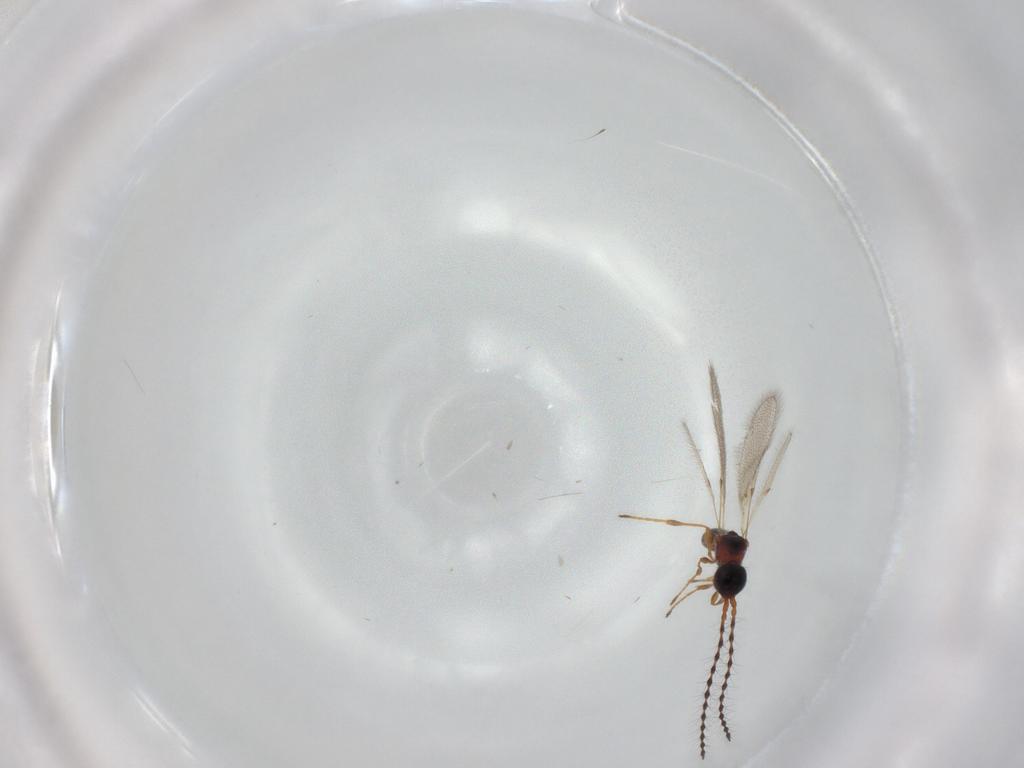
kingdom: Animalia
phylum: Arthropoda
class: Insecta
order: Hymenoptera
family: Diapriidae
